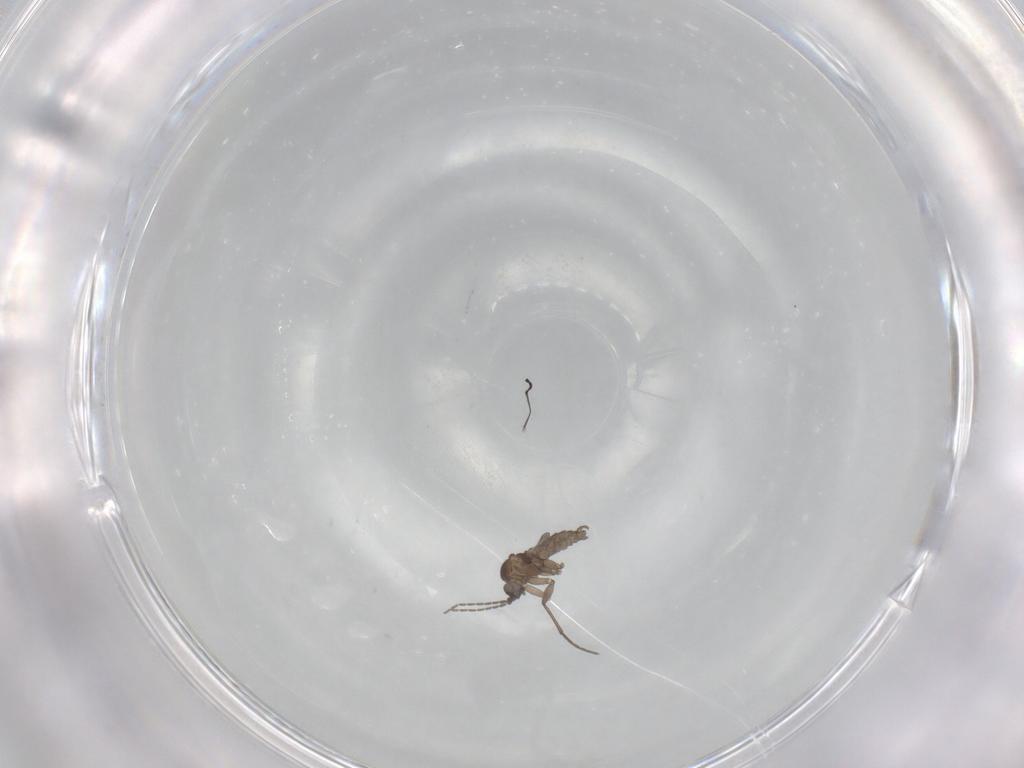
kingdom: Animalia
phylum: Arthropoda
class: Insecta
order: Diptera
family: Sciaridae
